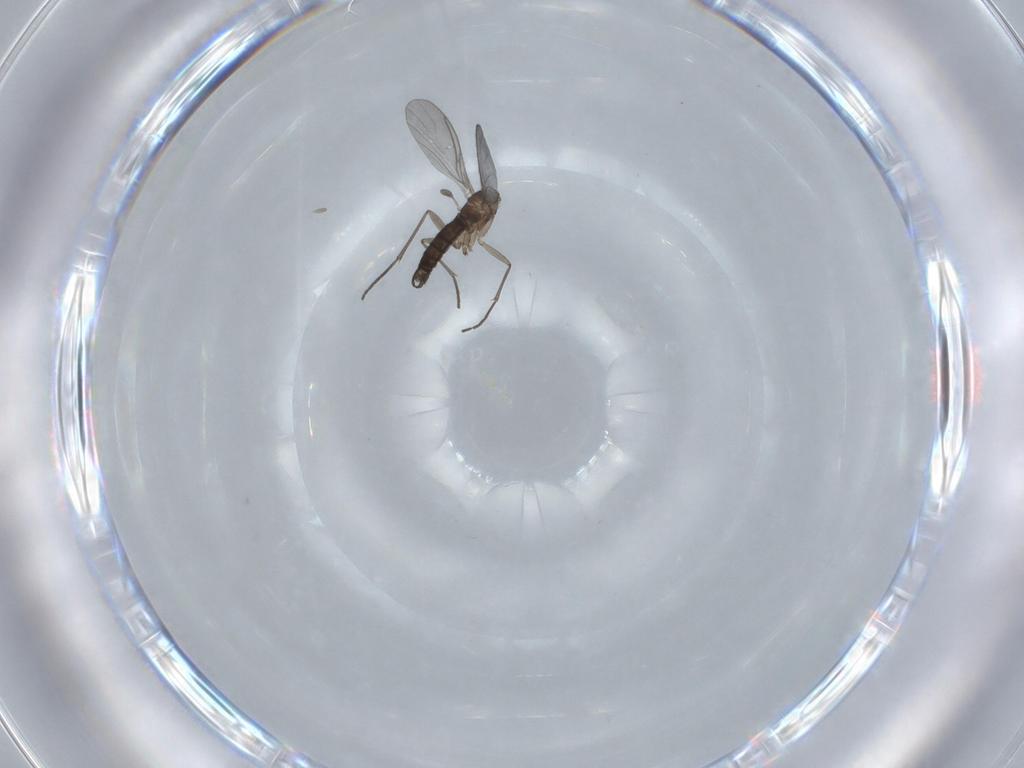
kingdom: Animalia
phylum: Arthropoda
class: Insecta
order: Diptera
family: Sciaridae
